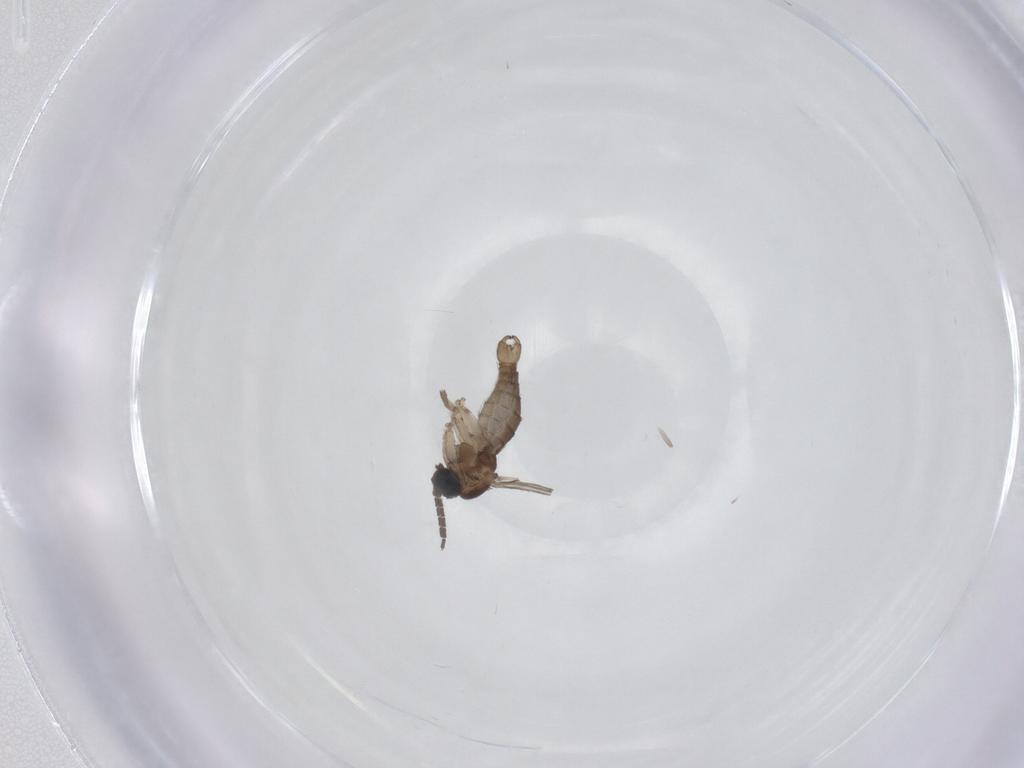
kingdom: Animalia
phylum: Arthropoda
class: Insecta
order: Diptera
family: Sciaridae
